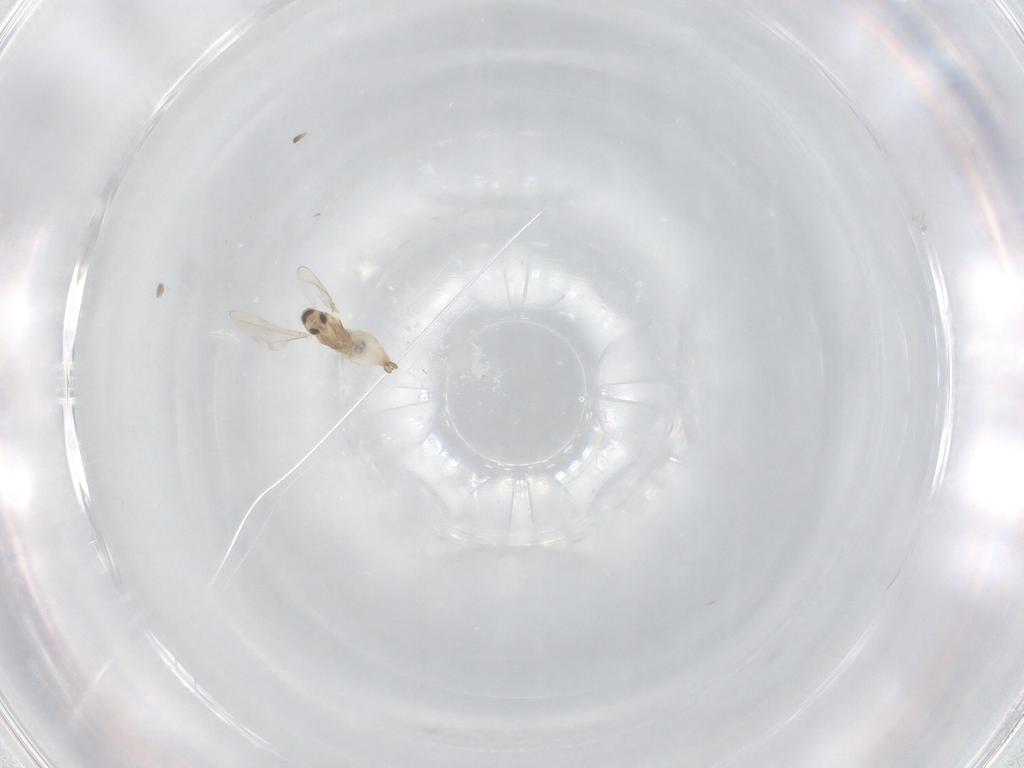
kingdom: Animalia
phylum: Arthropoda
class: Insecta
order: Diptera
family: Cecidomyiidae
